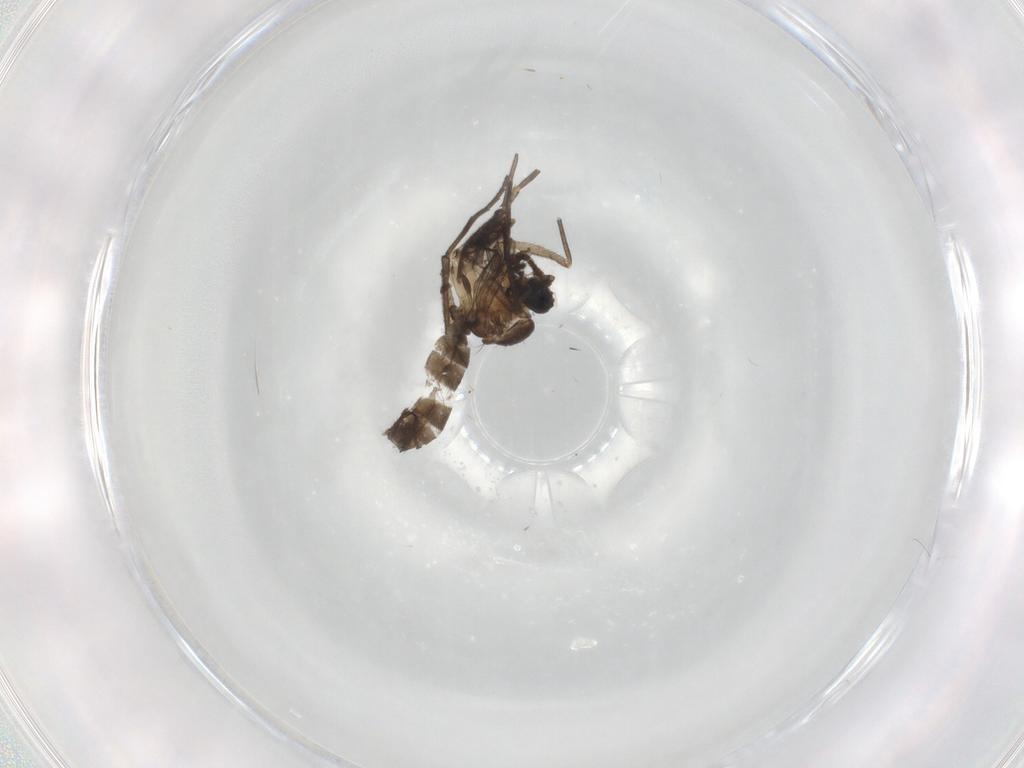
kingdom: Animalia
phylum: Arthropoda
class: Insecta
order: Diptera
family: Sciaridae
